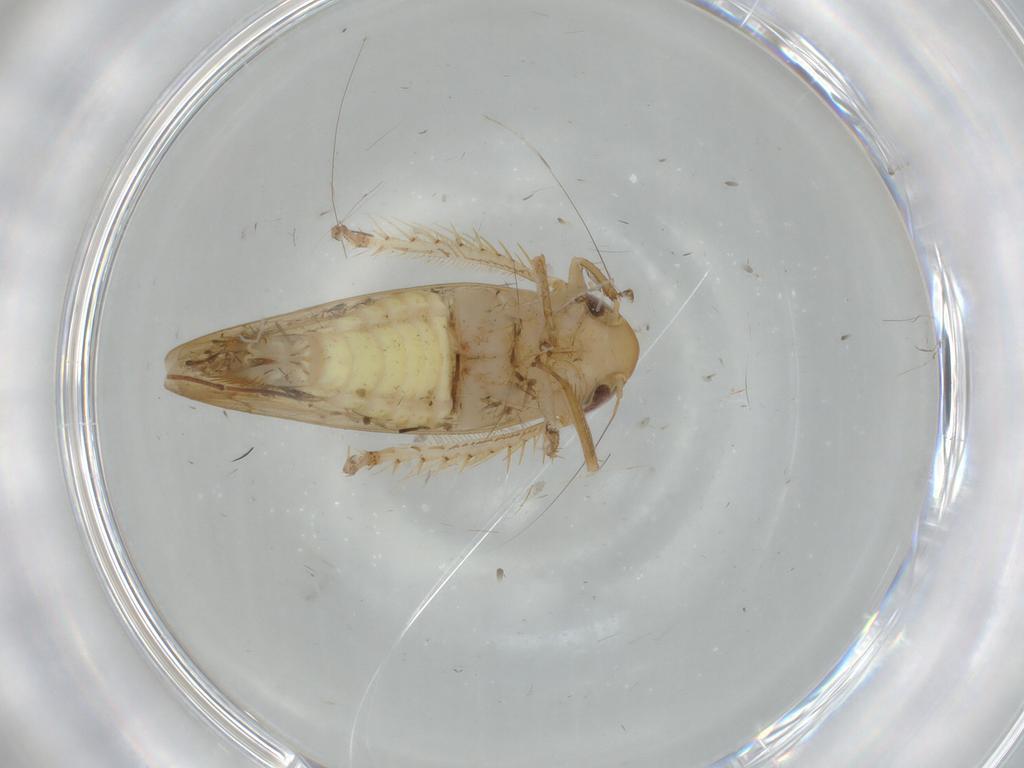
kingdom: Animalia
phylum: Arthropoda
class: Insecta
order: Hemiptera
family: Cicadellidae
